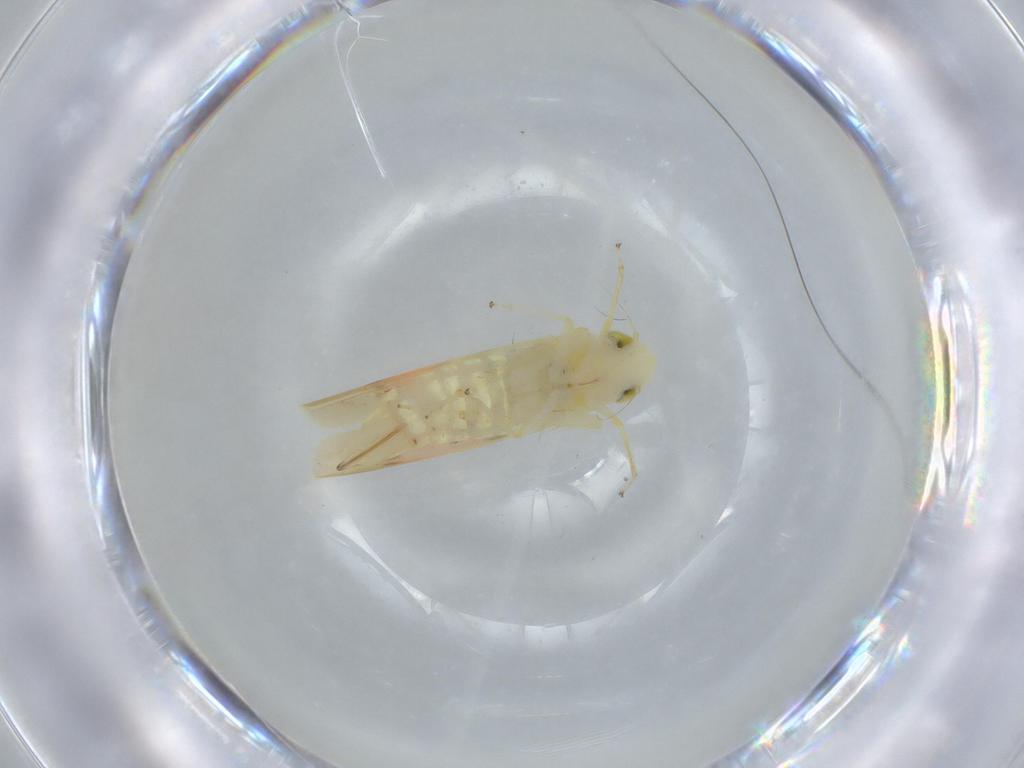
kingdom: Animalia
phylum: Arthropoda
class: Insecta
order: Hemiptera
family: Cicadellidae
